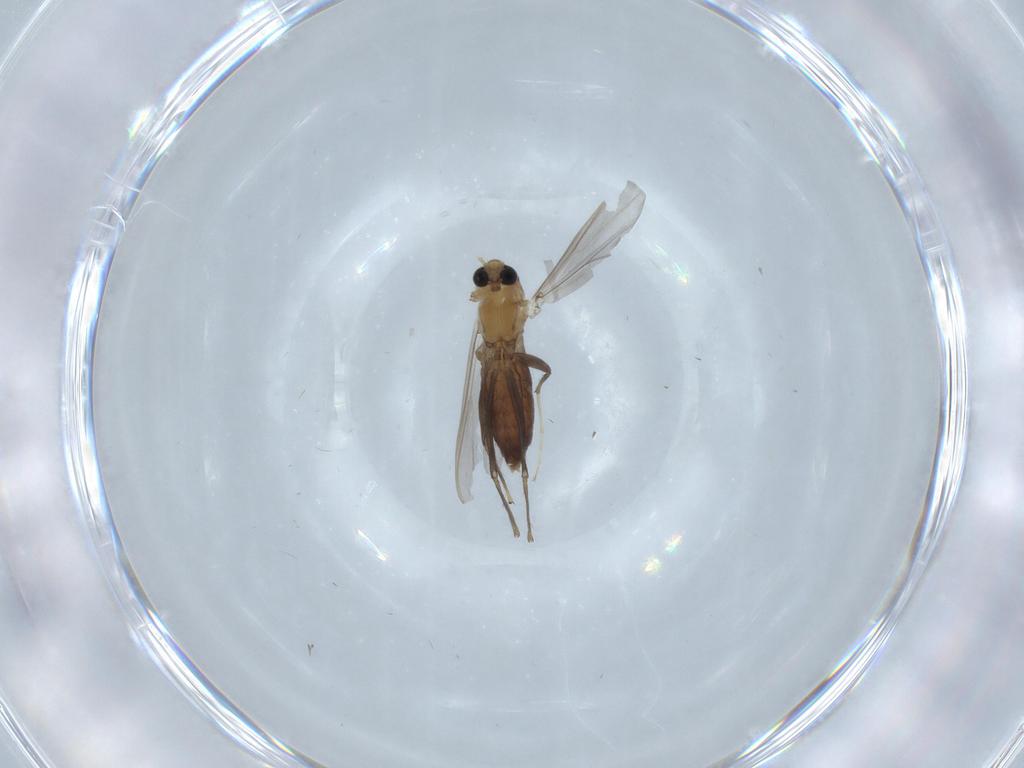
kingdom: Animalia
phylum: Arthropoda
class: Insecta
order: Diptera
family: Chironomidae
